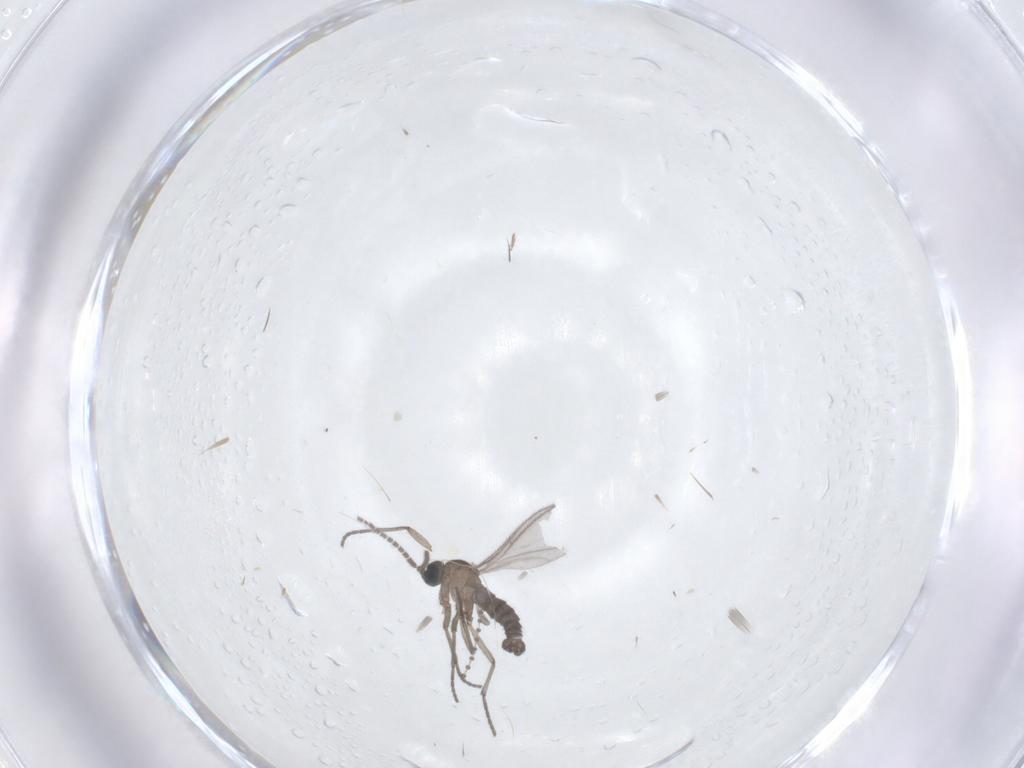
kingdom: Animalia
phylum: Arthropoda
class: Insecta
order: Diptera
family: Sciaridae
